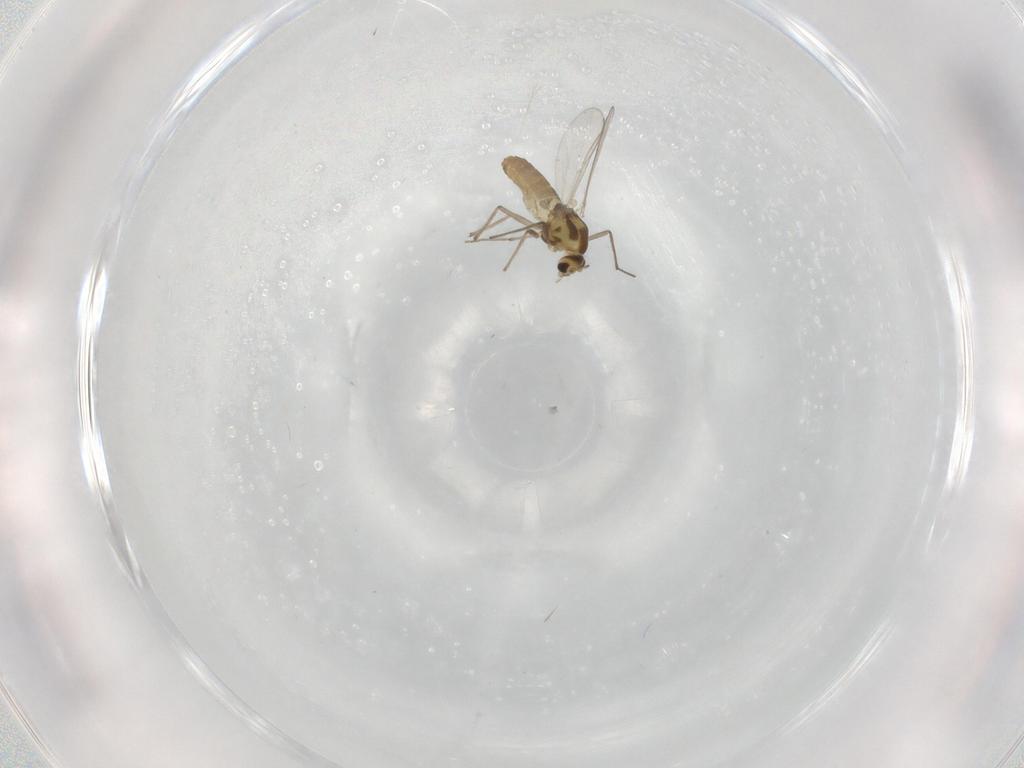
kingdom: Animalia
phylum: Arthropoda
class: Insecta
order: Diptera
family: Chironomidae
